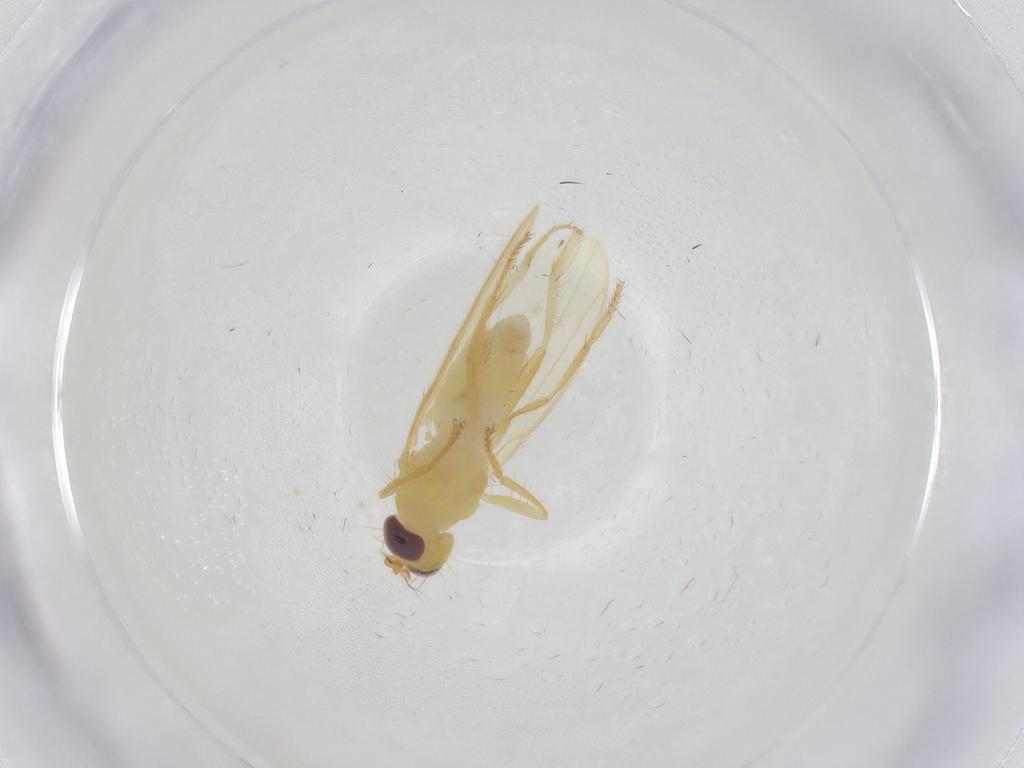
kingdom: Animalia
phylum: Arthropoda
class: Insecta
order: Diptera
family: Periscelididae
